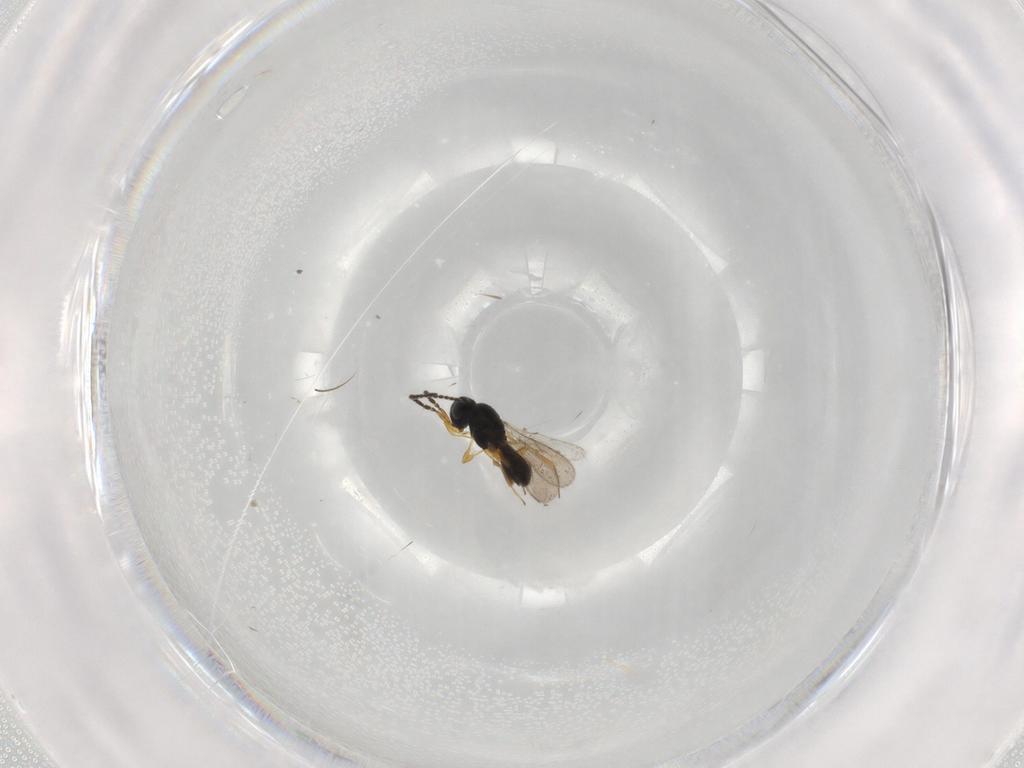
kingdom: Animalia
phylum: Arthropoda
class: Insecta
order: Hymenoptera
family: Scelionidae
